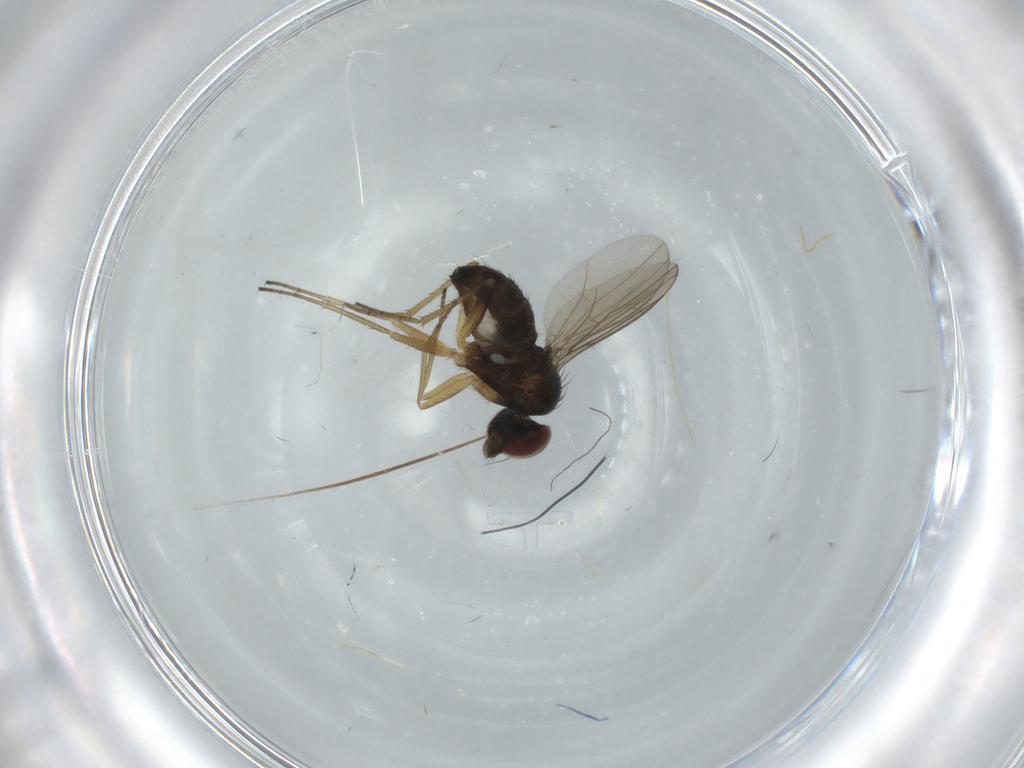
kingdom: Animalia
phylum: Arthropoda
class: Insecta
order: Diptera
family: Dolichopodidae
